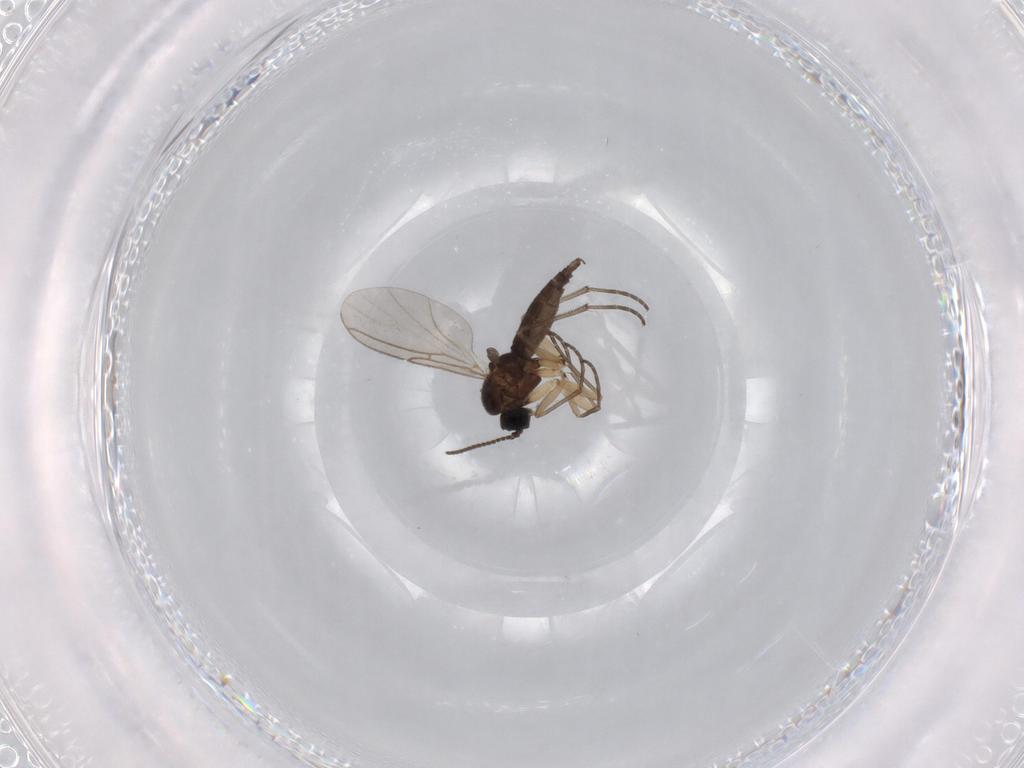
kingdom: Animalia
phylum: Arthropoda
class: Insecta
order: Diptera
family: Sciaridae
